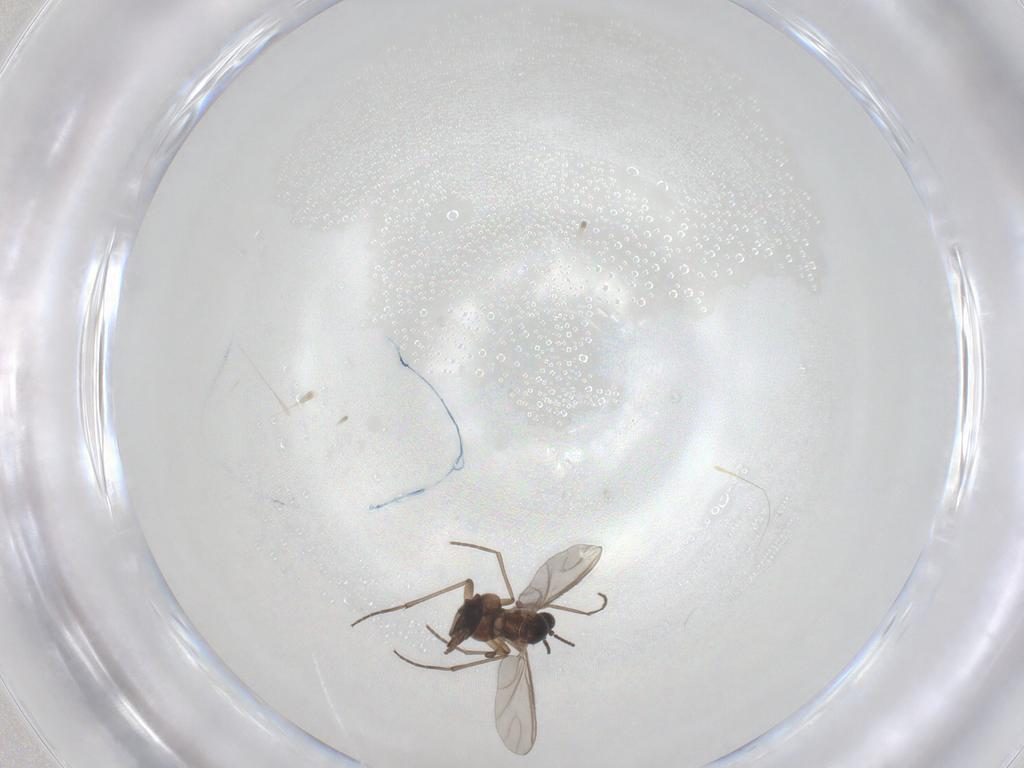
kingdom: Animalia
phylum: Arthropoda
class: Insecta
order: Diptera
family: Sciaridae
